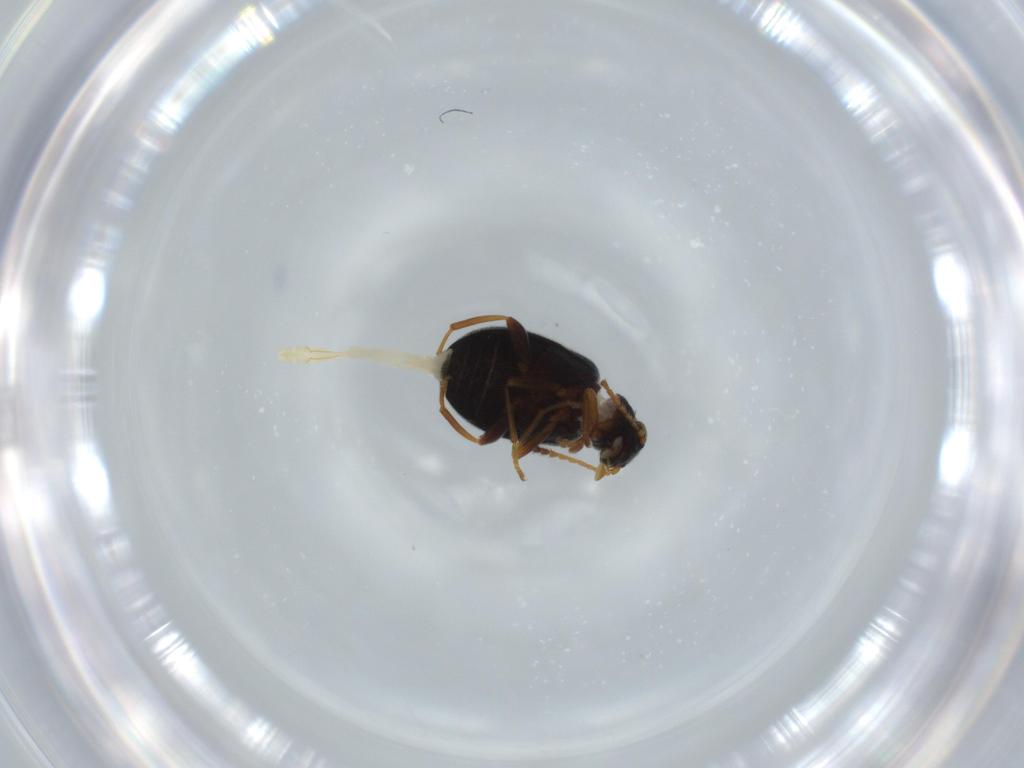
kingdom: Animalia
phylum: Arthropoda
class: Insecta
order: Coleoptera
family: Aderidae
